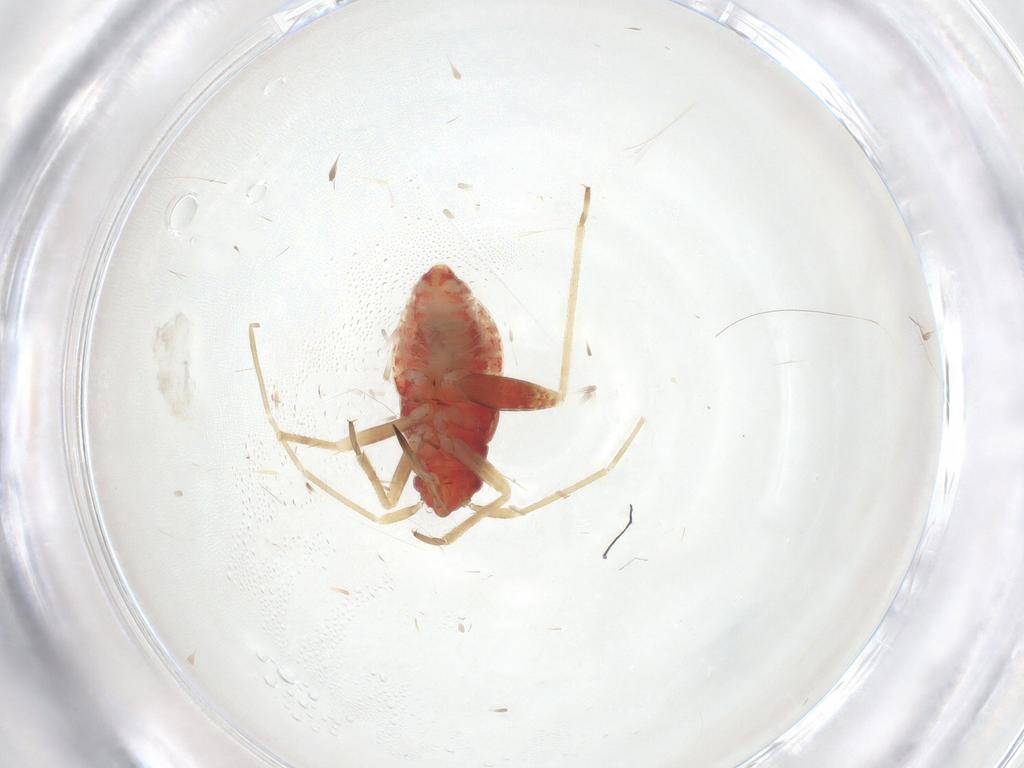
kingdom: Animalia
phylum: Arthropoda
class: Insecta
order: Hemiptera
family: Miridae
